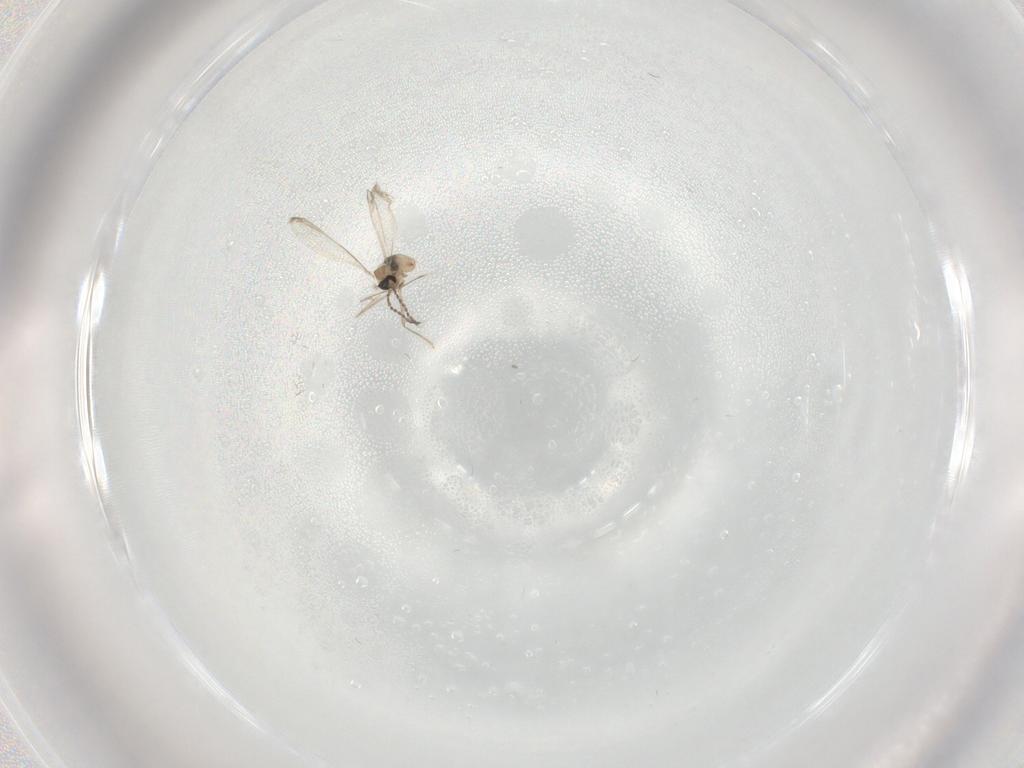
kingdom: Animalia
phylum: Arthropoda
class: Insecta
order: Diptera
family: Cecidomyiidae
